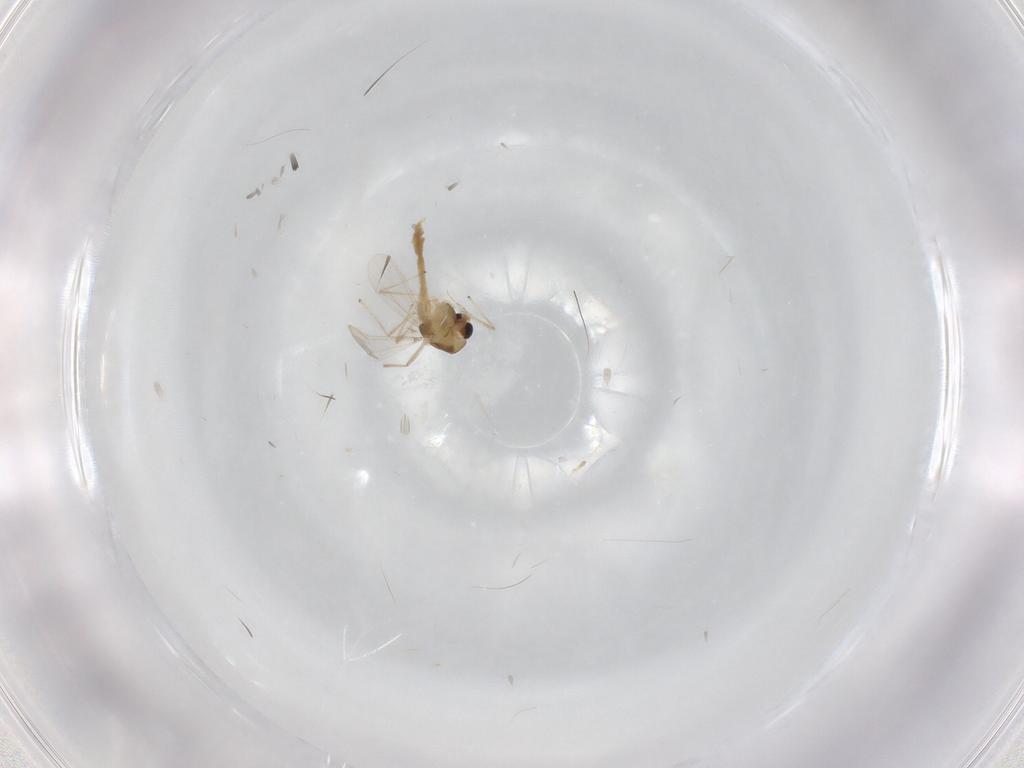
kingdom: Animalia
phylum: Arthropoda
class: Insecta
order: Diptera
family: Chironomidae
